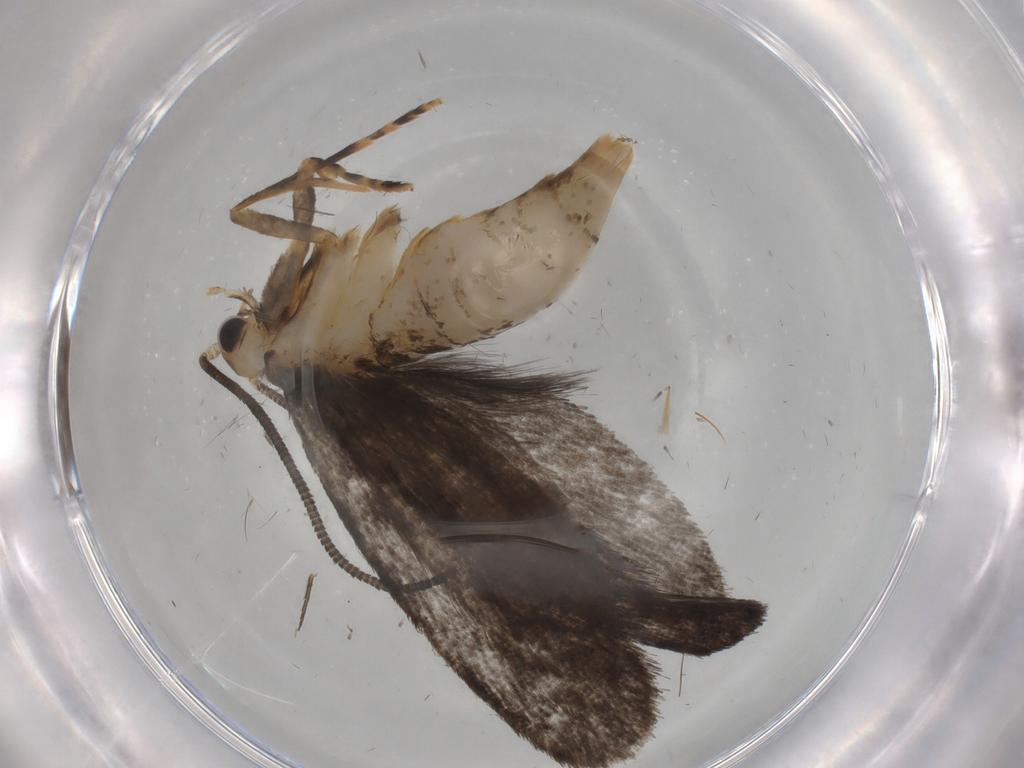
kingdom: Animalia
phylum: Arthropoda
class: Insecta
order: Lepidoptera
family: Tineidae
